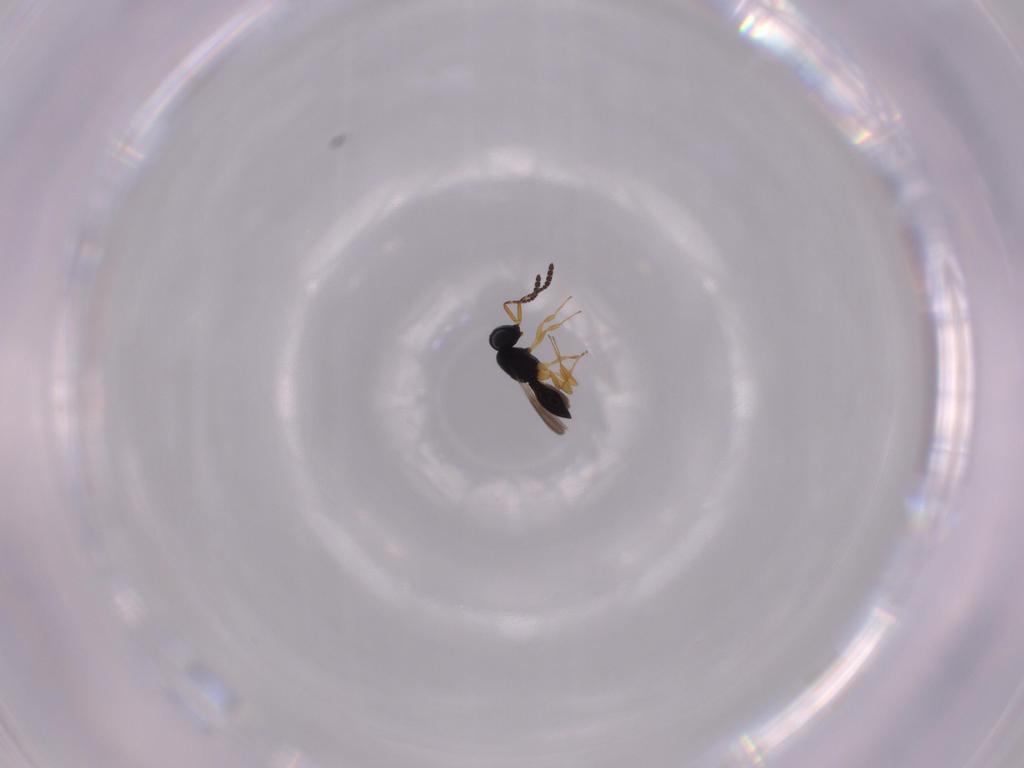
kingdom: Animalia
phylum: Arthropoda
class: Insecta
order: Hymenoptera
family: Scelionidae
